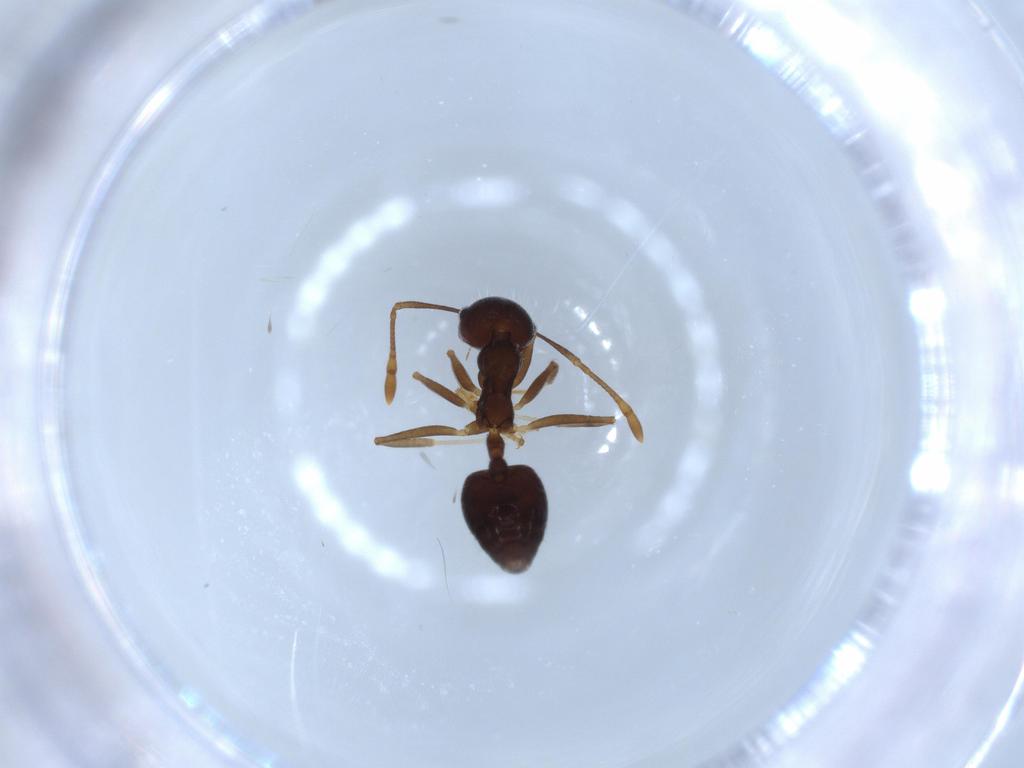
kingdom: Animalia
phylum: Arthropoda
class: Insecta
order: Hymenoptera
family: Formicidae
